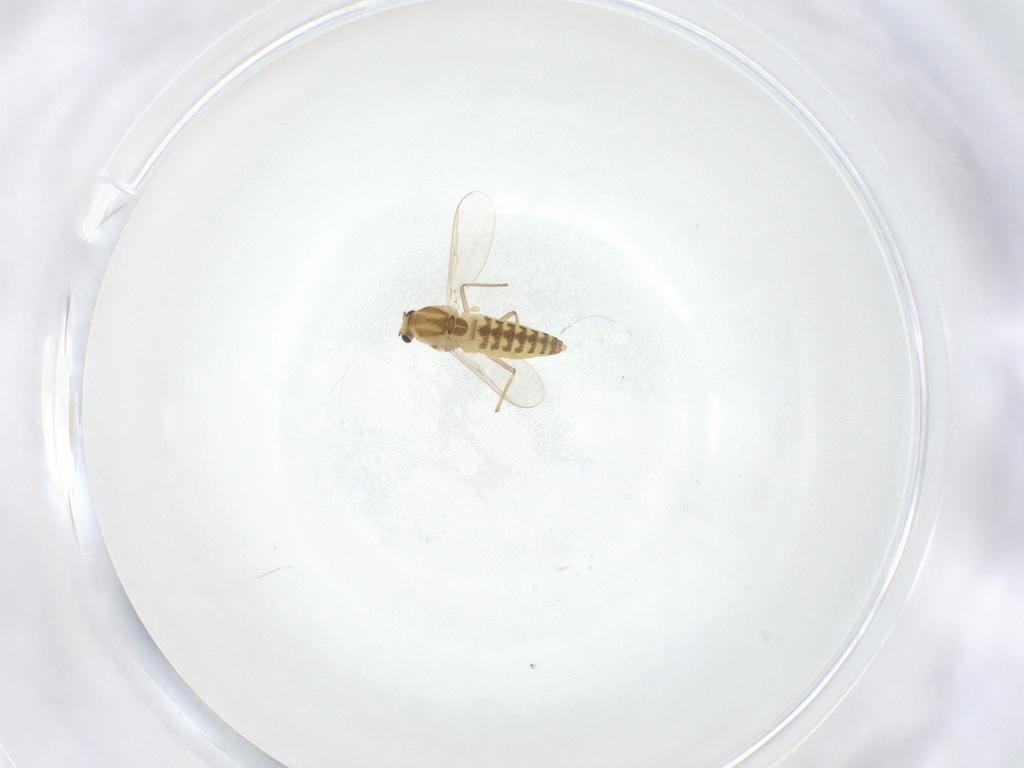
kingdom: Animalia
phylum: Arthropoda
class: Insecta
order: Diptera
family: Chironomidae
